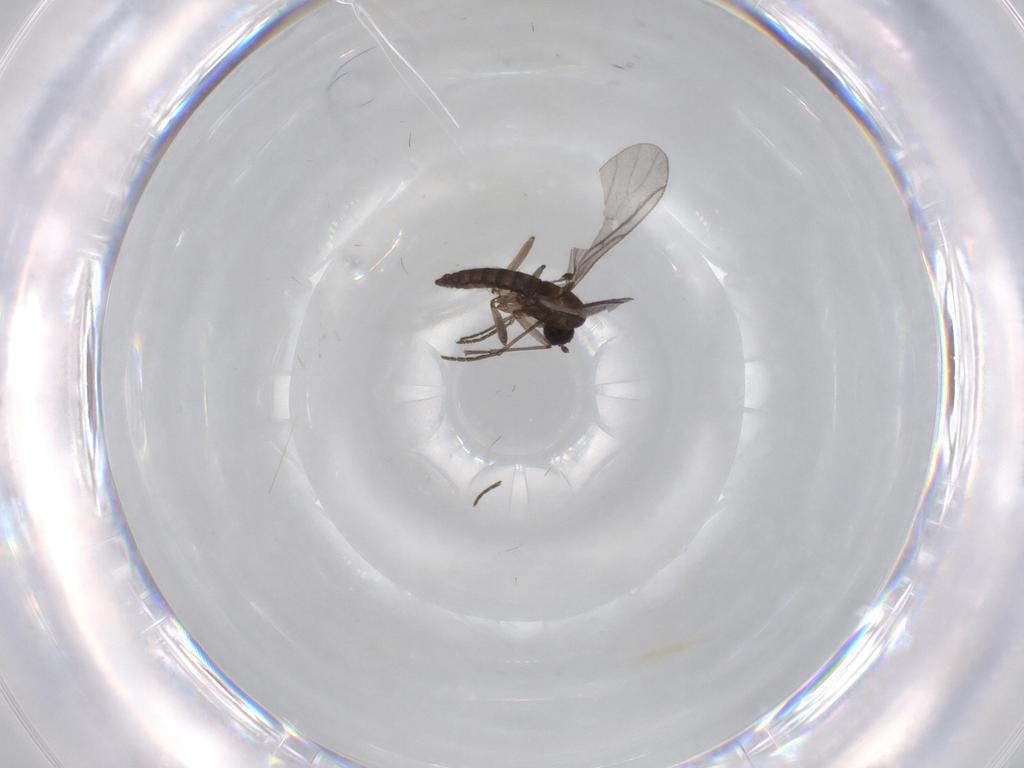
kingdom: Animalia
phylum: Arthropoda
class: Insecta
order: Diptera
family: Sciaridae
